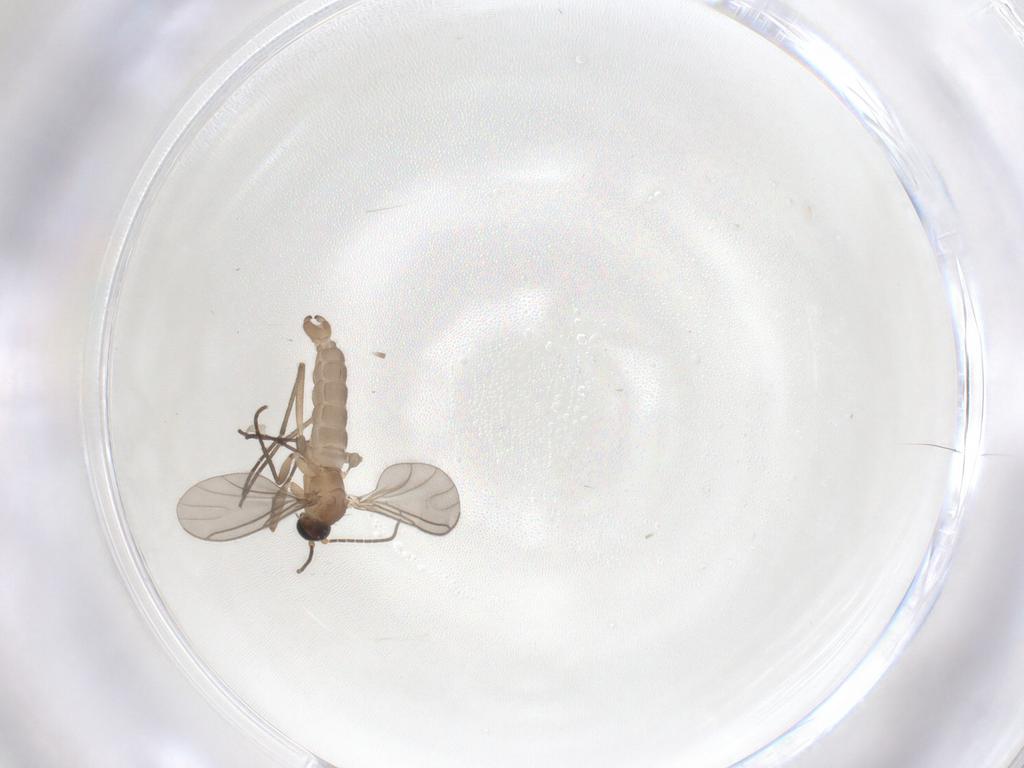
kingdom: Animalia
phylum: Arthropoda
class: Insecta
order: Diptera
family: Sciaridae
